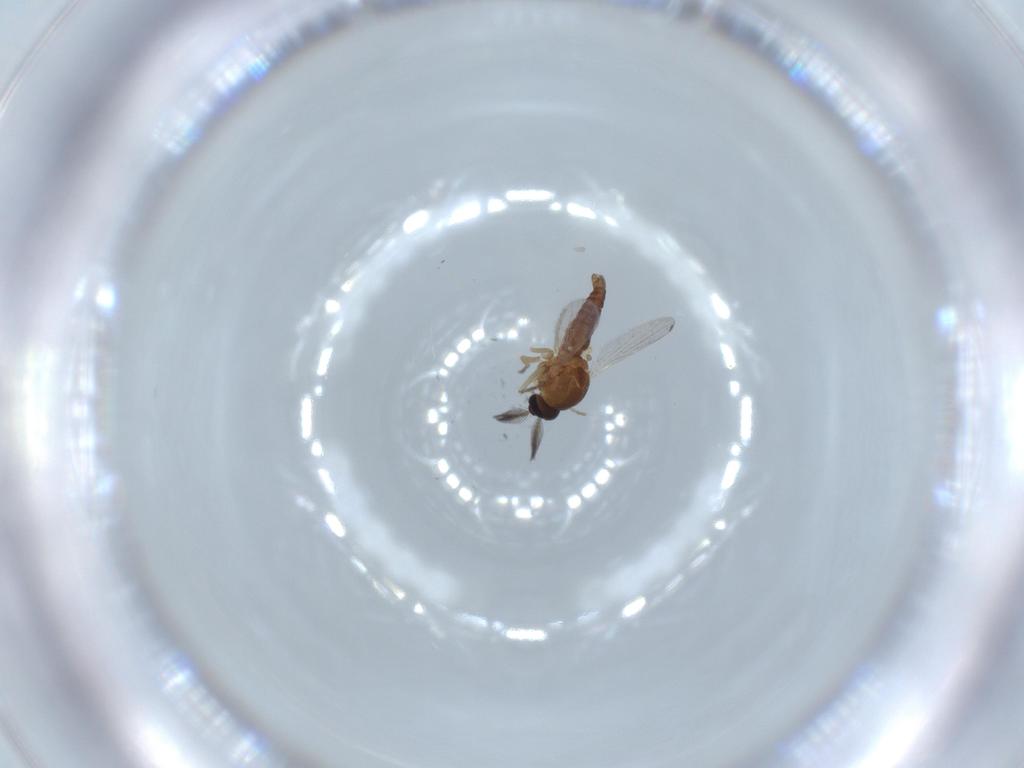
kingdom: Animalia
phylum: Arthropoda
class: Insecta
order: Diptera
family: Ceratopogonidae
